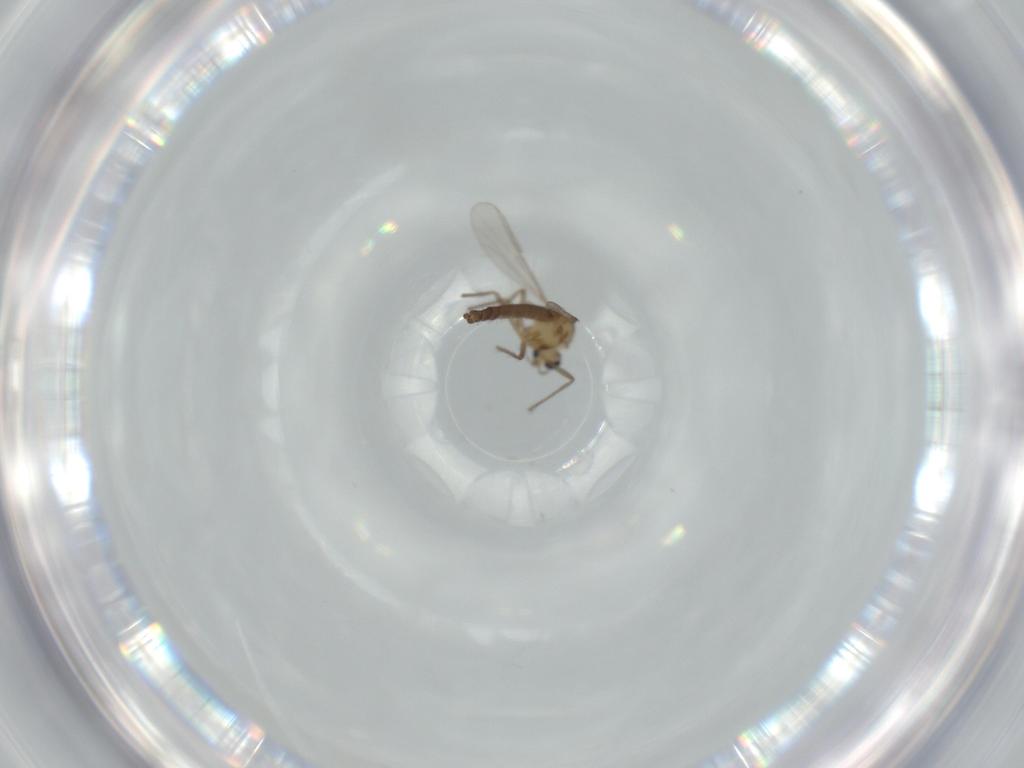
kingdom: Animalia
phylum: Arthropoda
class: Insecta
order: Diptera
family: Chironomidae
